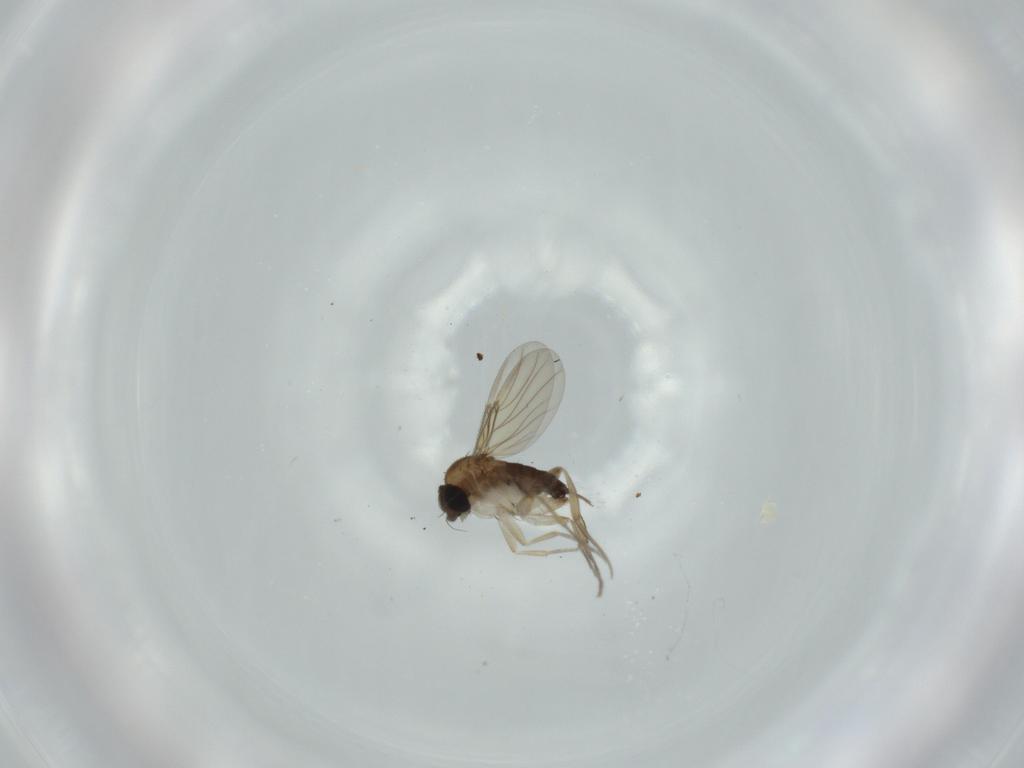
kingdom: Animalia
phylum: Arthropoda
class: Insecta
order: Diptera
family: Phoridae
